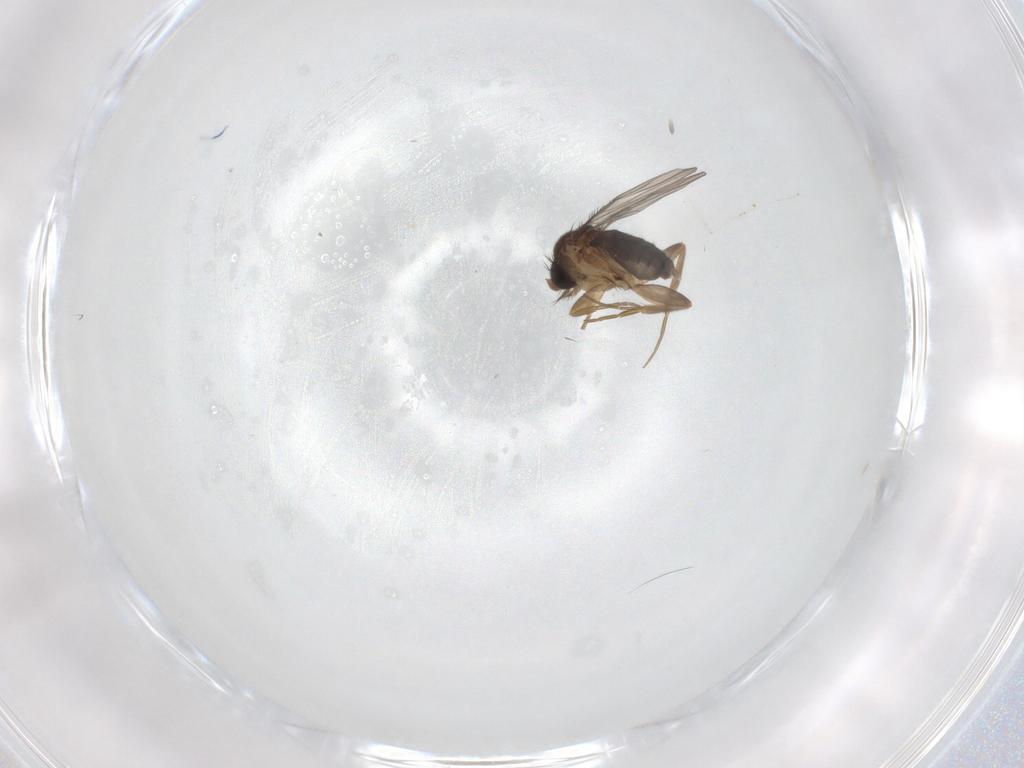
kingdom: Animalia
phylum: Arthropoda
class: Insecta
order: Diptera
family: Cecidomyiidae
